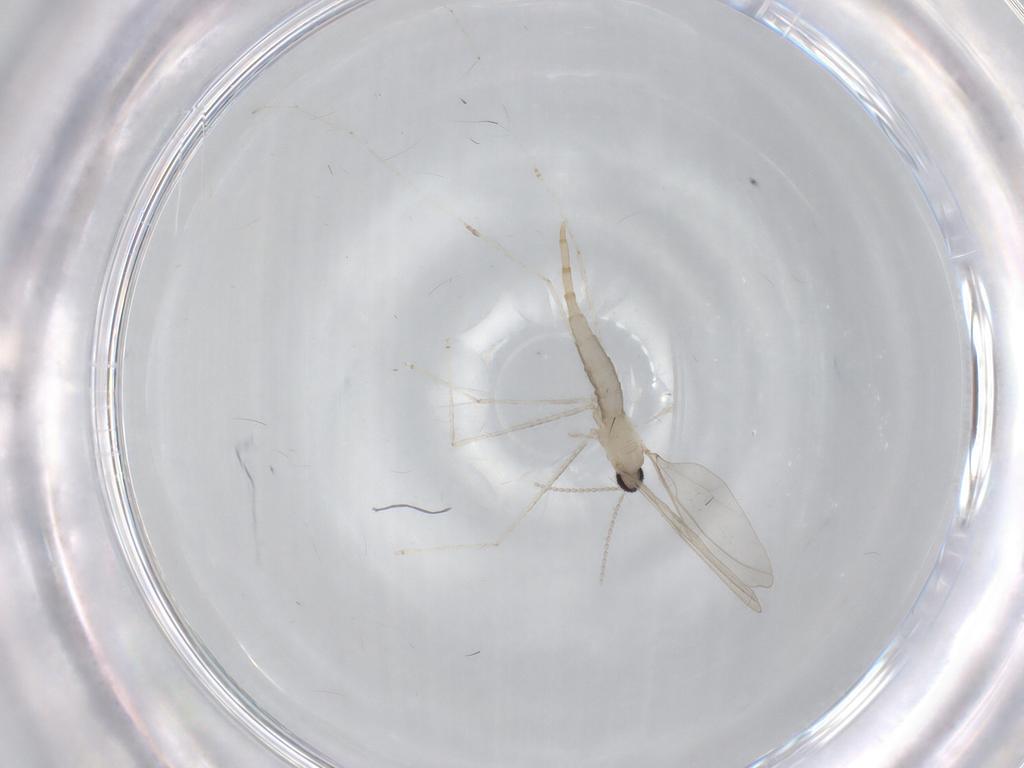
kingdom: Animalia
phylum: Arthropoda
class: Insecta
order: Diptera
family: Cecidomyiidae
